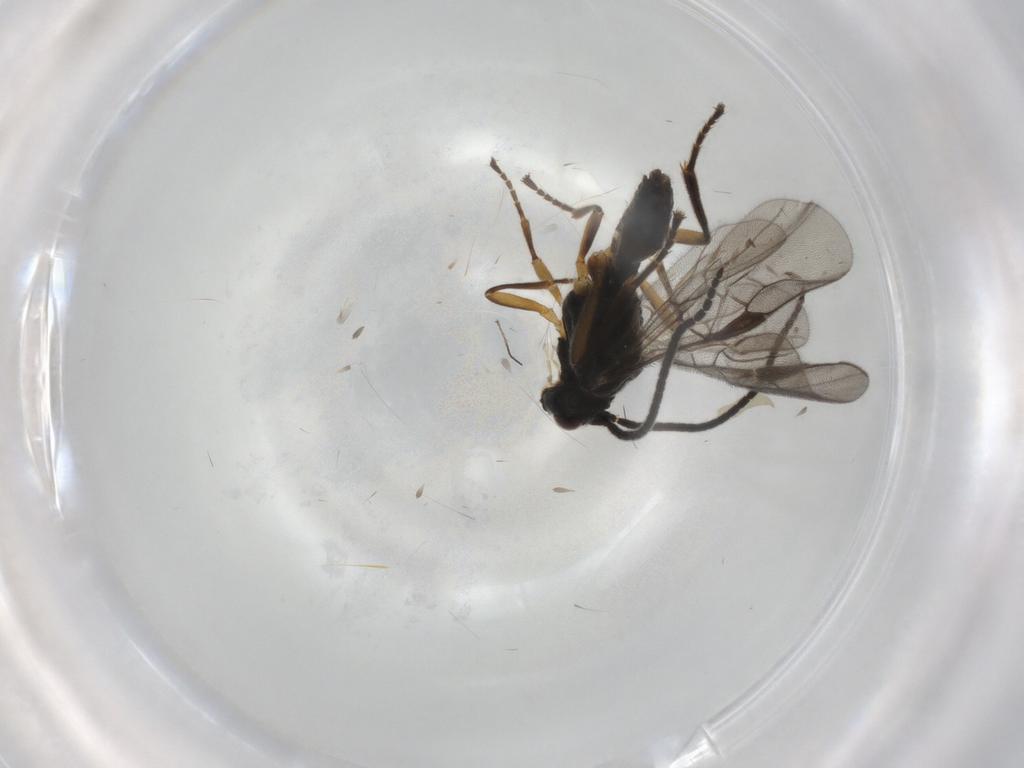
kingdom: Animalia
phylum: Arthropoda
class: Insecta
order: Hymenoptera
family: Braconidae
